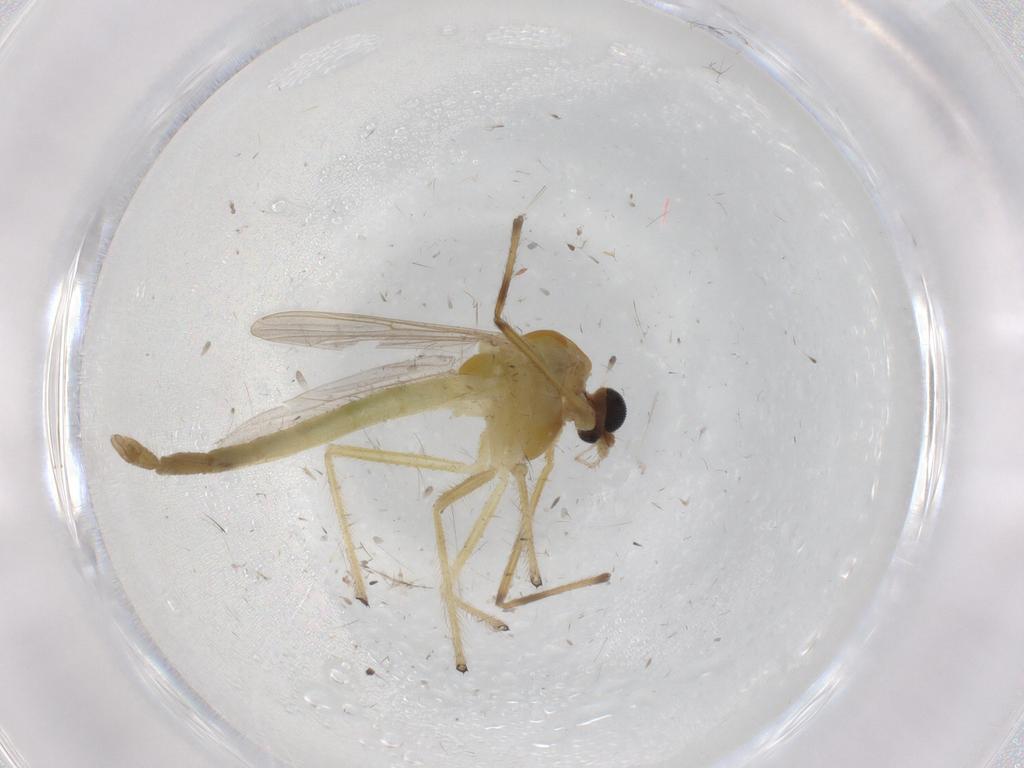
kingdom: Animalia
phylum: Arthropoda
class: Insecta
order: Diptera
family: Chironomidae
